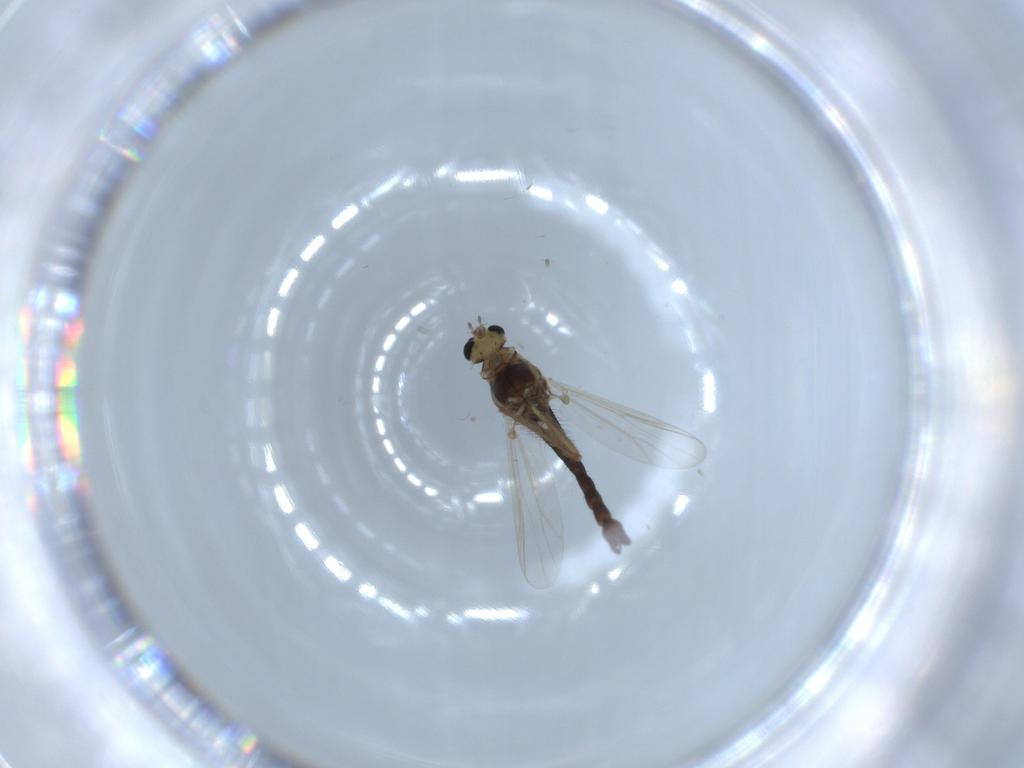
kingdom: Animalia
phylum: Arthropoda
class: Insecta
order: Diptera
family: Chironomidae
